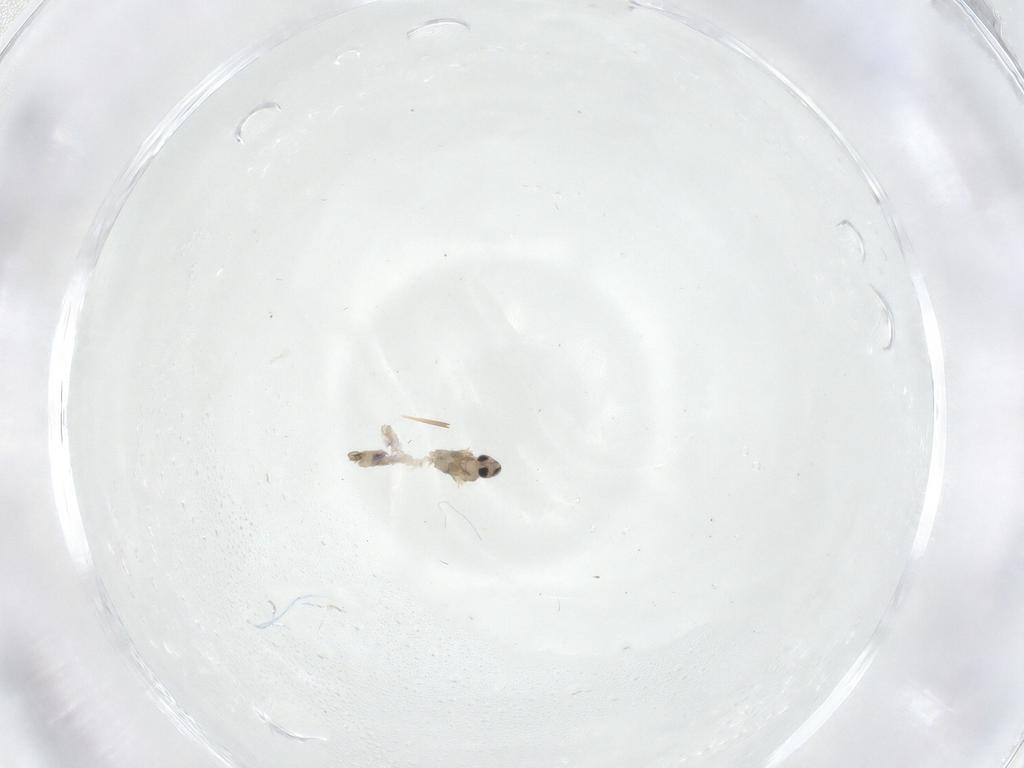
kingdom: Animalia
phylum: Arthropoda
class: Insecta
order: Diptera
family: Cecidomyiidae
